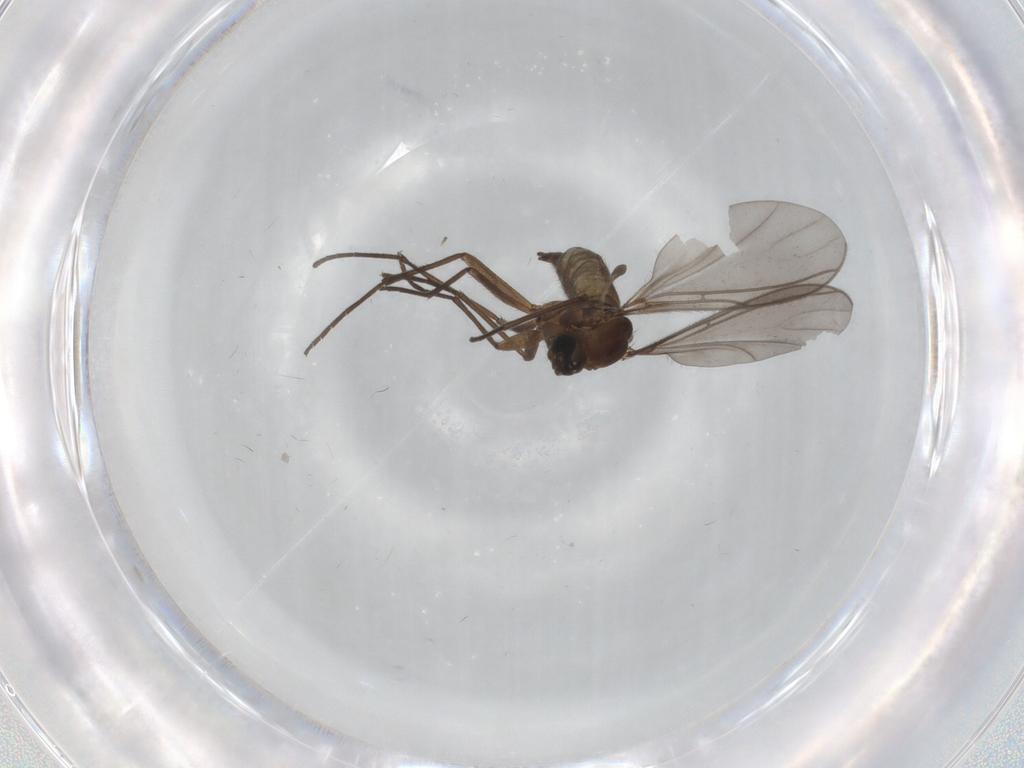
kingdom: Animalia
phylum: Arthropoda
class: Insecta
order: Diptera
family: Sciaridae
